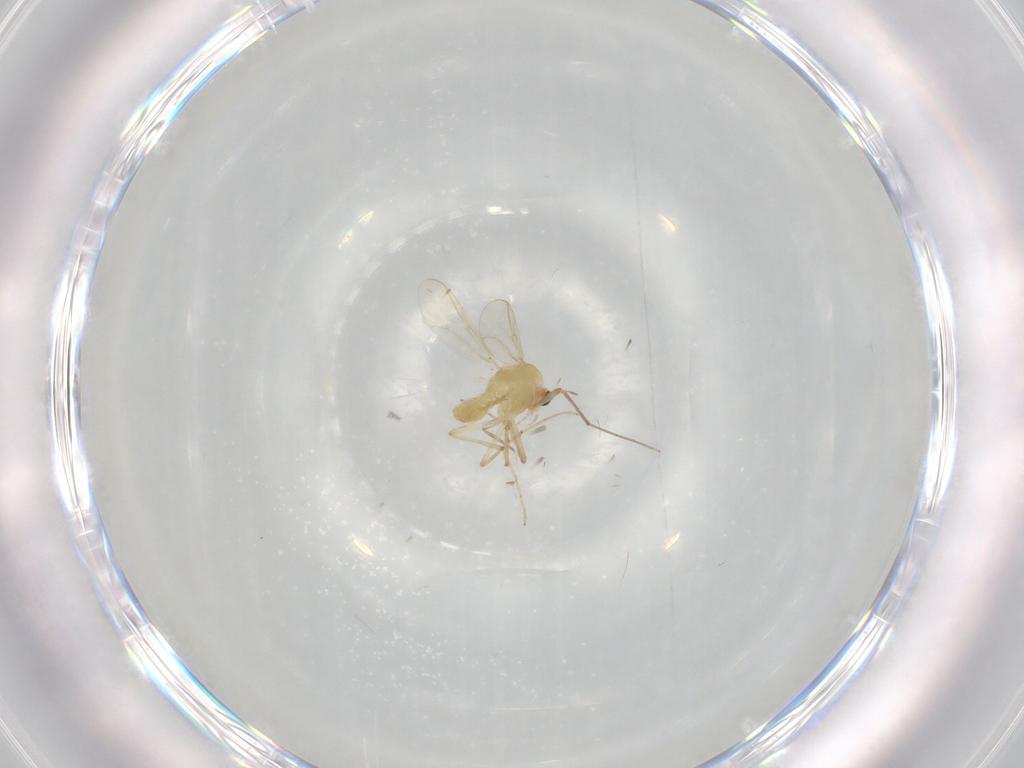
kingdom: Animalia
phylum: Arthropoda
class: Insecta
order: Diptera
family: Chironomidae
